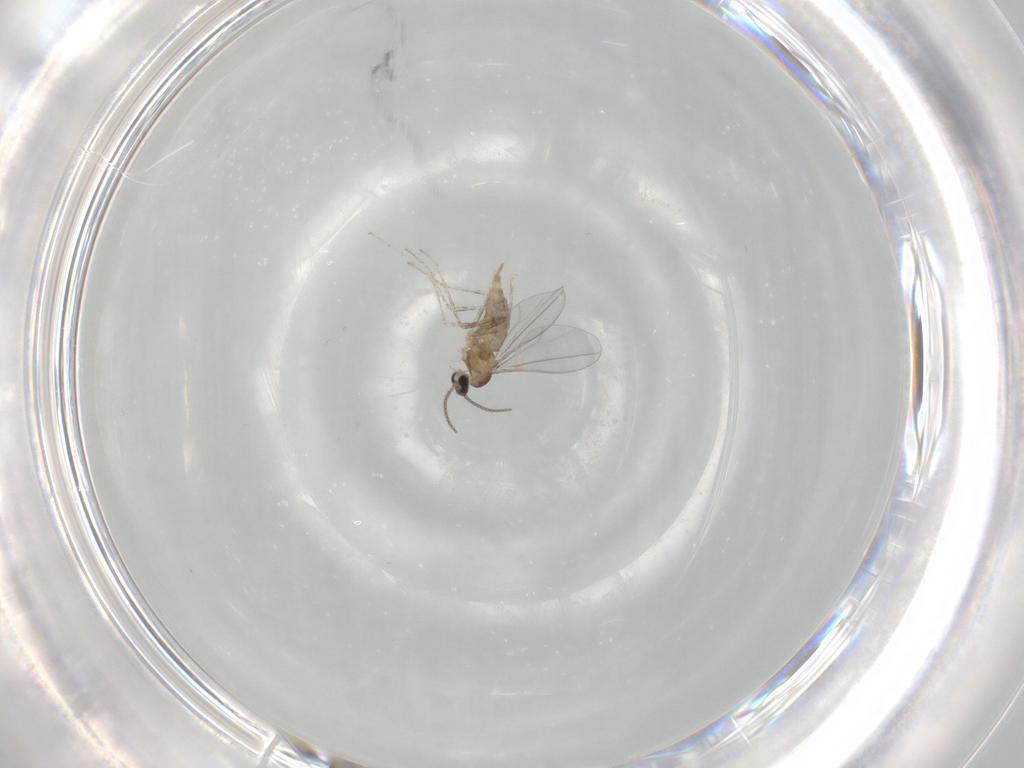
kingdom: Animalia
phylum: Arthropoda
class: Insecta
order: Diptera
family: Cecidomyiidae
